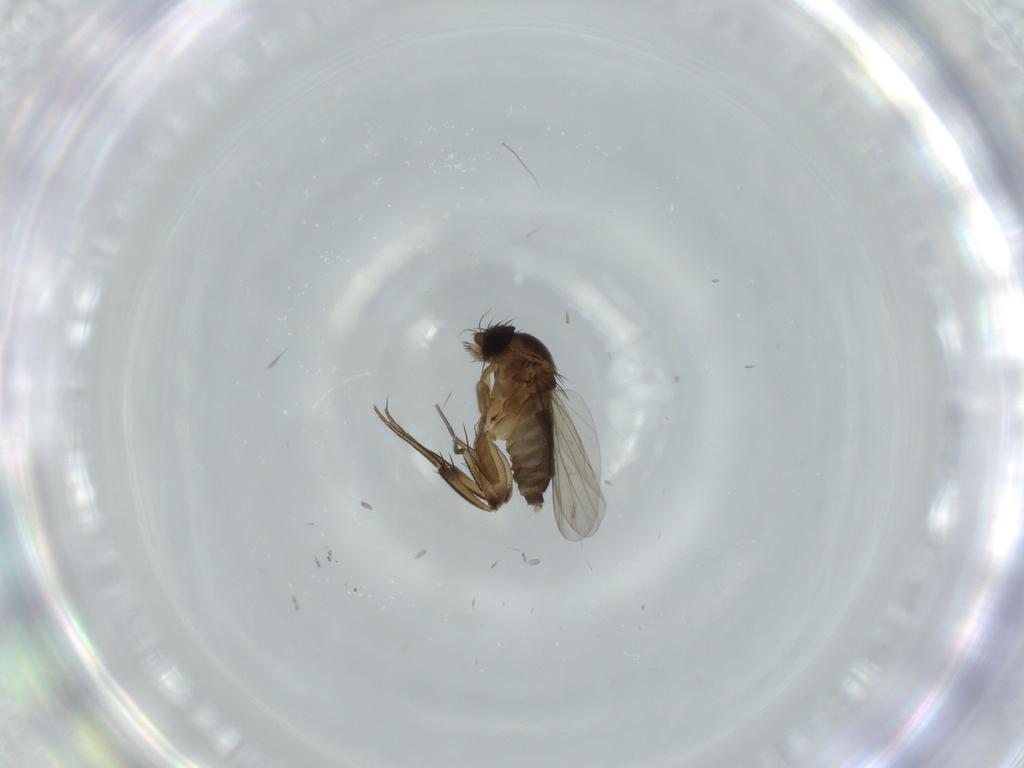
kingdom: Animalia
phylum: Arthropoda
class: Insecta
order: Diptera
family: Phoridae
